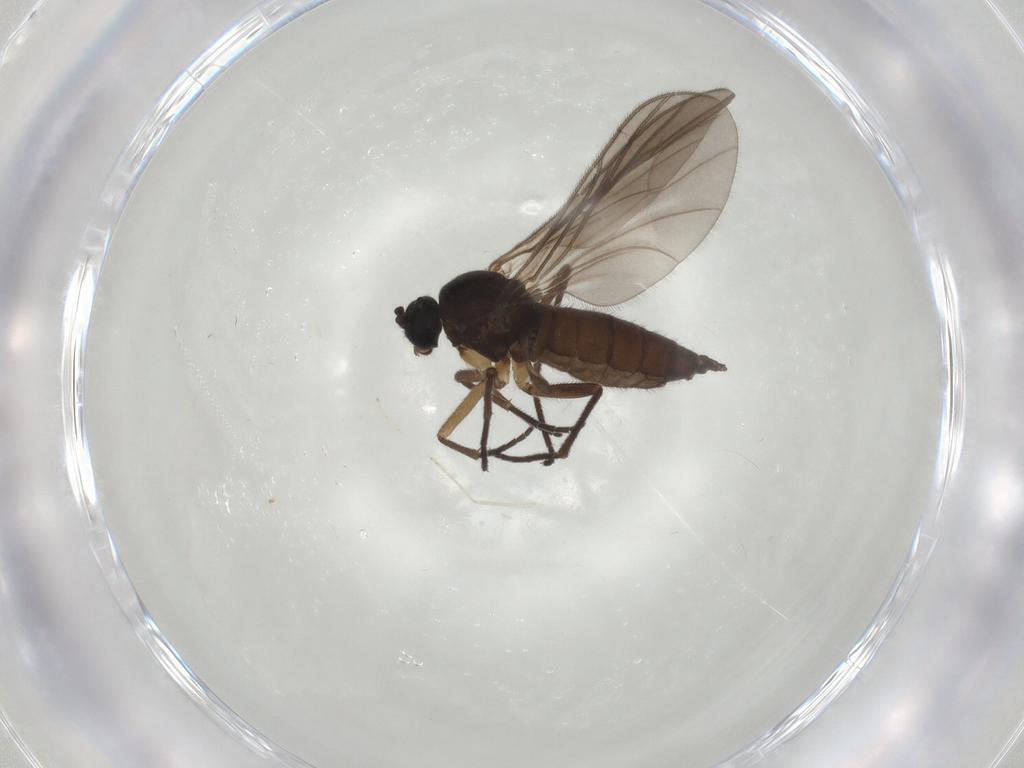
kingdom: Animalia
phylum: Arthropoda
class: Insecta
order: Diptera
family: Sciaridae
